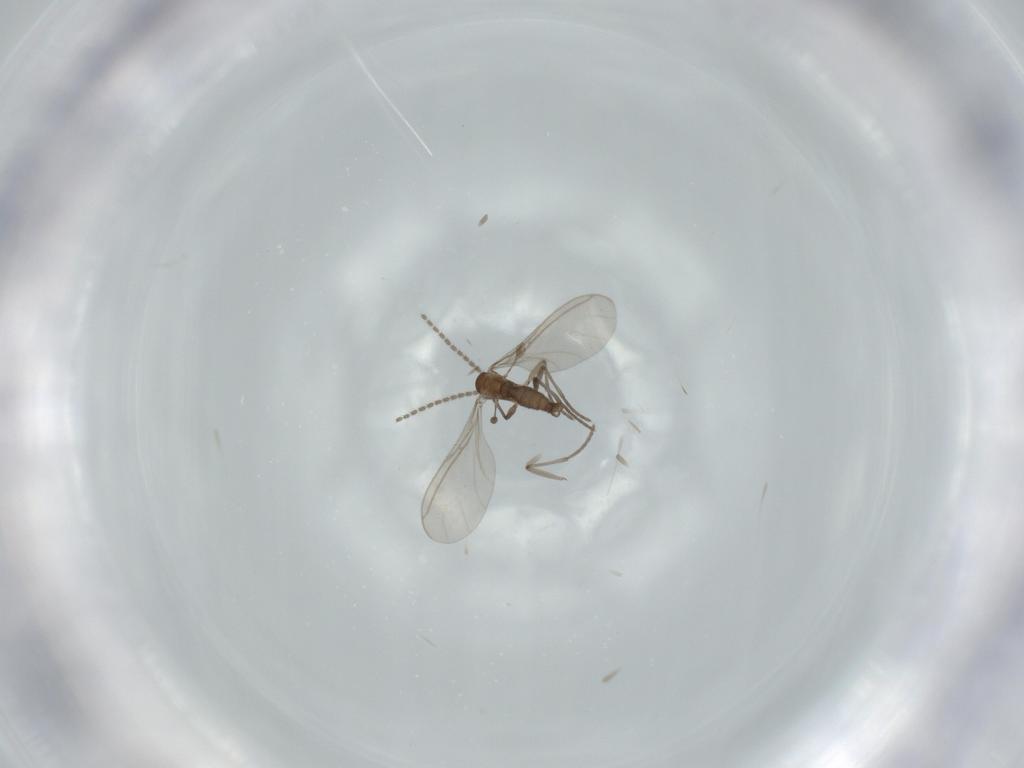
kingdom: Animalia
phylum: Arthropoda
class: Insecta
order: Diptera
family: Sciaridae
